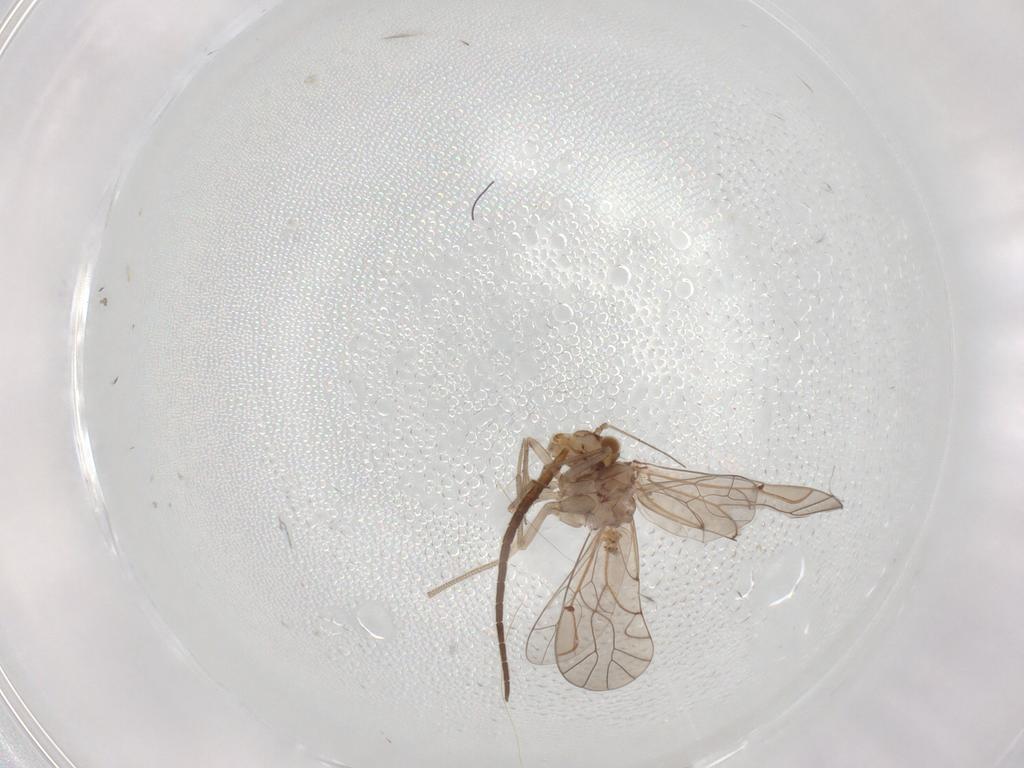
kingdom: Animalia
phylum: Arthropoda
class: Insecta
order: Psocodea
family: Lachesillidae
